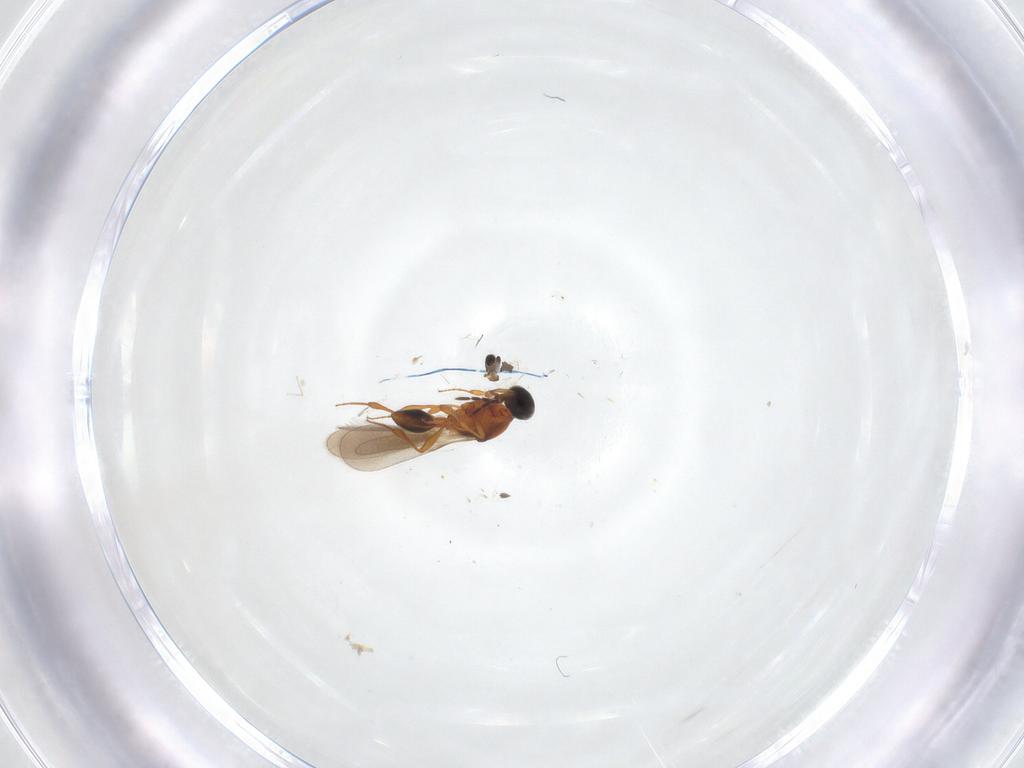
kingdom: Animalia
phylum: Arthropoda
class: Insecta
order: Hymenoptera
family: Platygastridae
